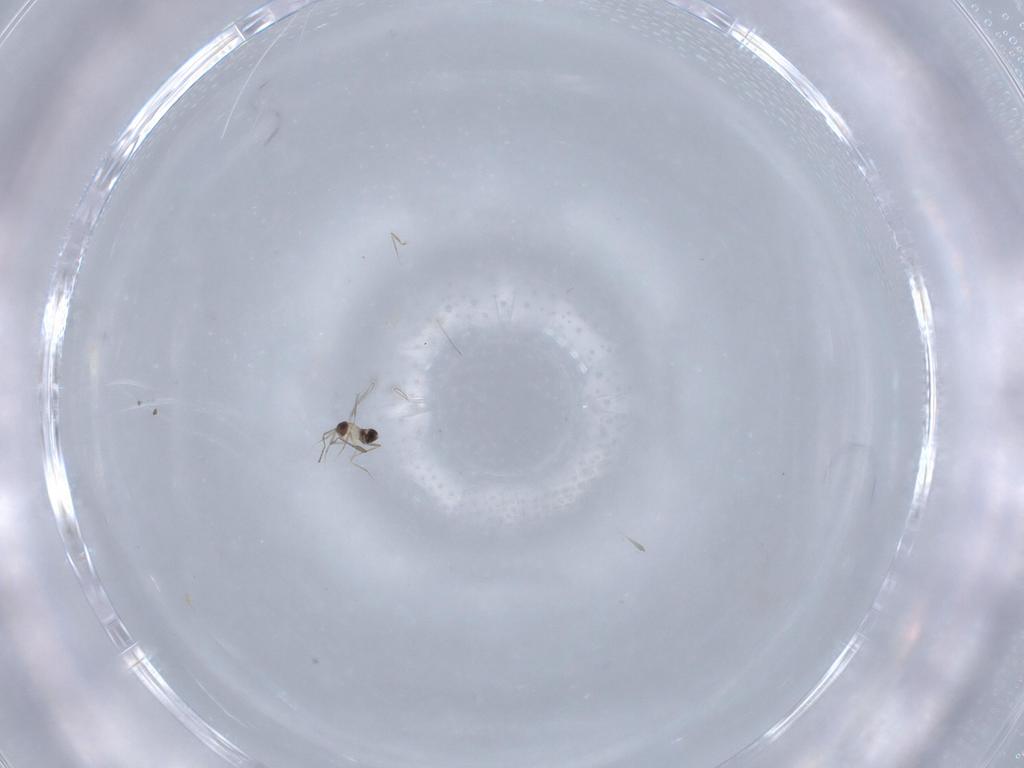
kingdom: Animalia
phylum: Arthropoda
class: Insecta
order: Hymenoptera
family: Mymaridae
